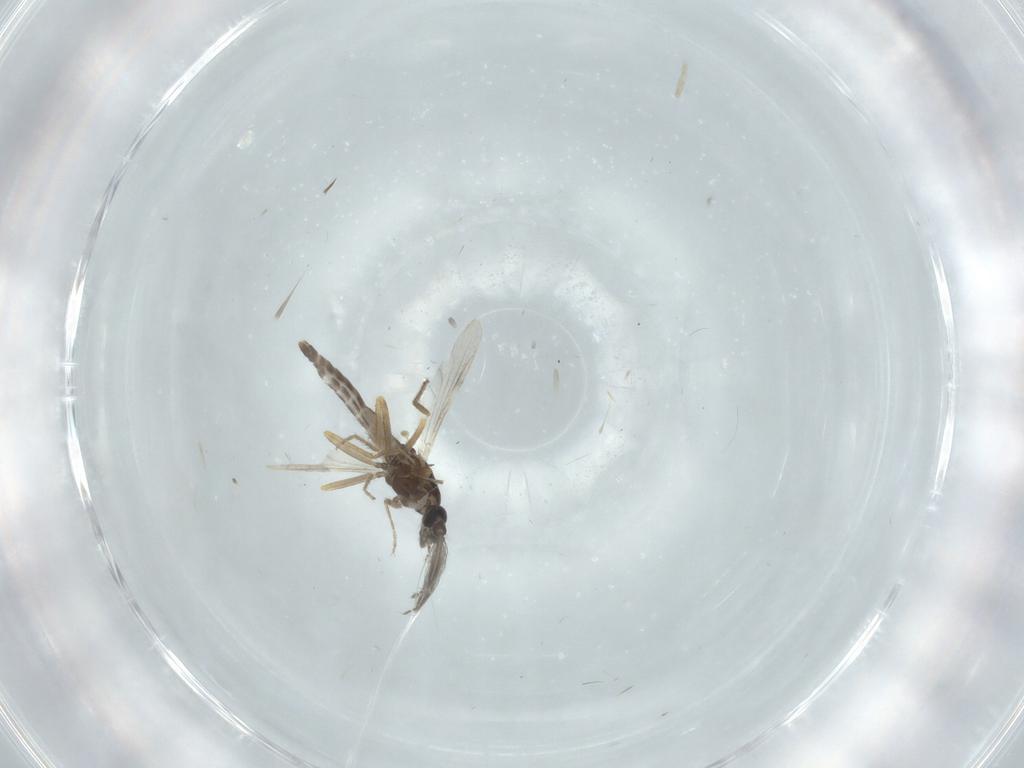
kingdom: Animalia
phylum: Arthropoda
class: Insecta
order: Diptera
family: Ceratopogonidae
